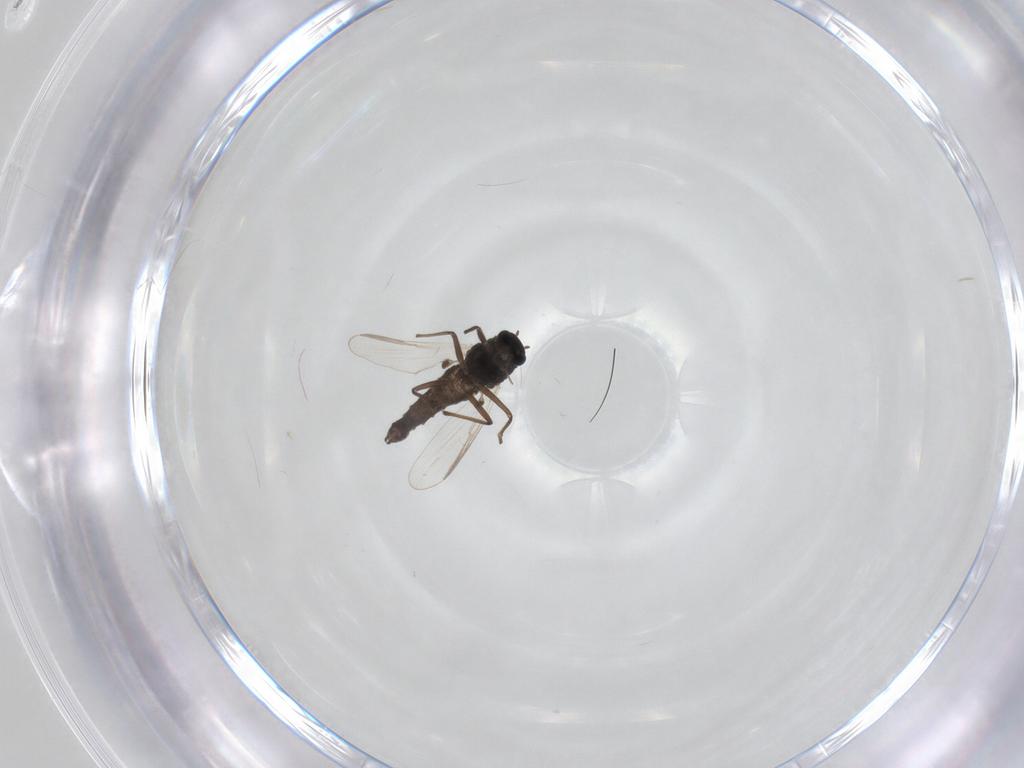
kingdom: Animalia
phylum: Arthropoda
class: Insecta
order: Diptera
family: Chironomidae
